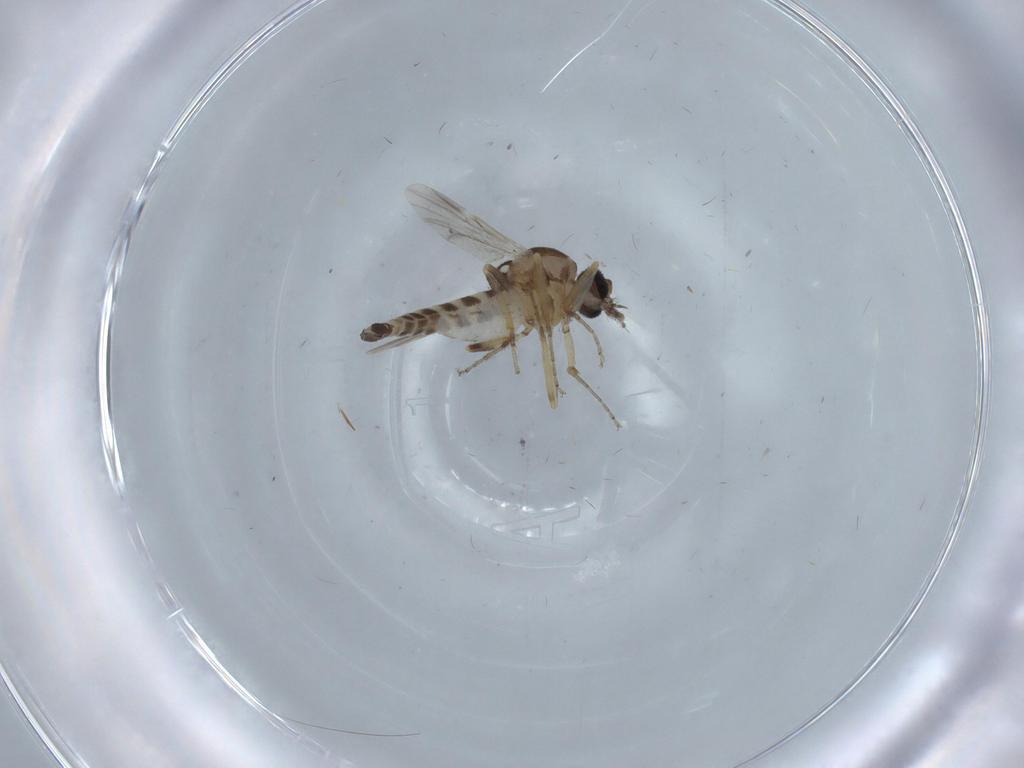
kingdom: Animalia
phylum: Arthropoda
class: Insecta
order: Diptera
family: Ceratopogonidae
